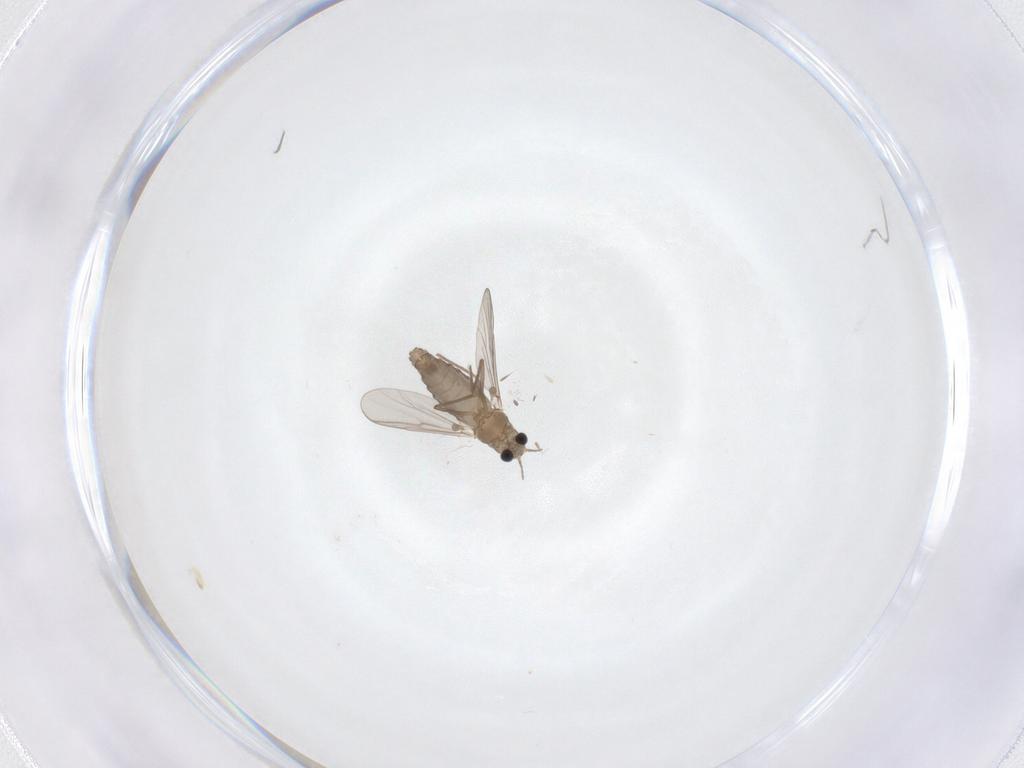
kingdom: Animalia
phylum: Arthropoda
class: Insecta
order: Diptera
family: Chironomidae
